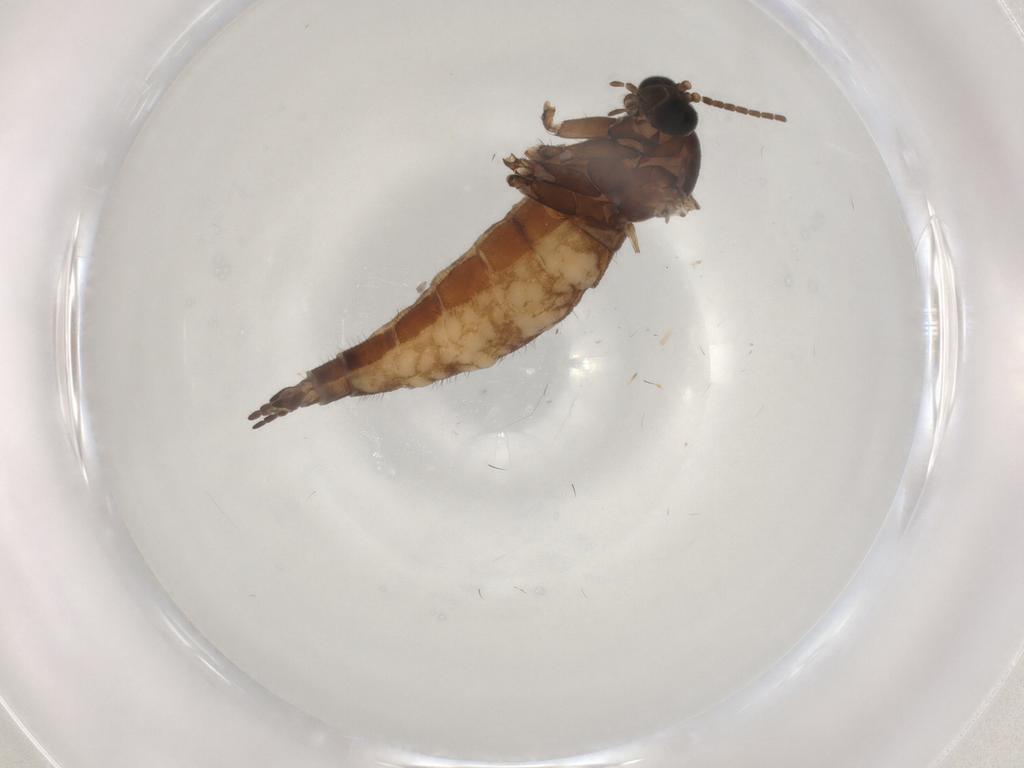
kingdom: Animalia
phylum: Arthropoda
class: Insecta
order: Diptera
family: Sciaridae
